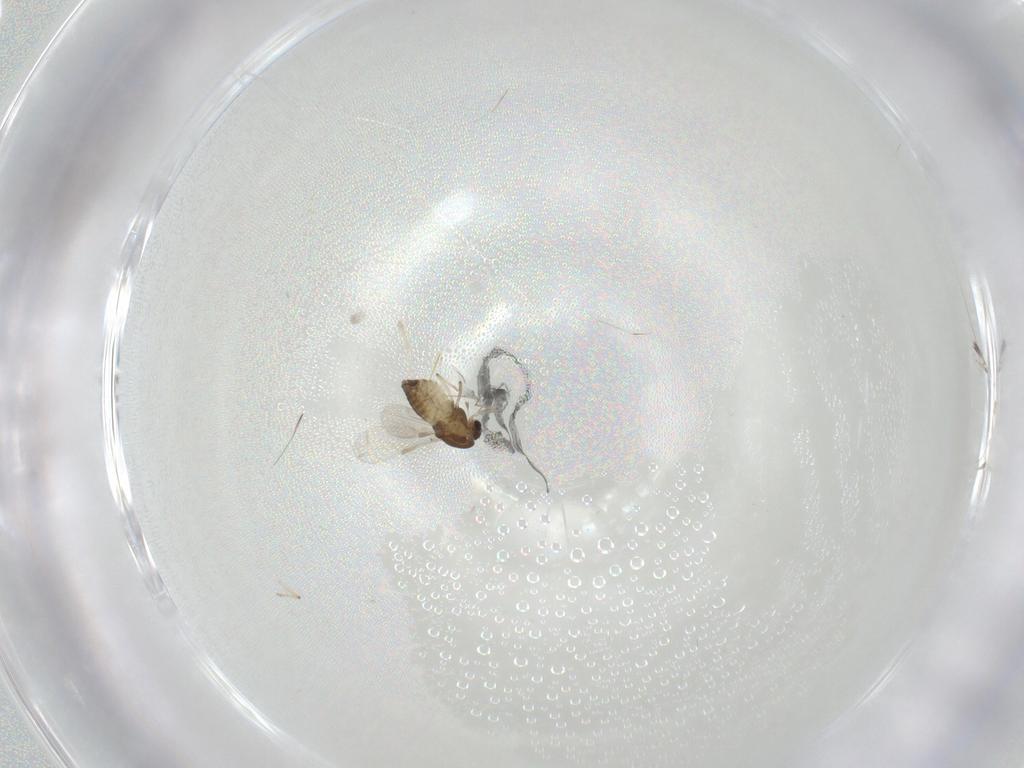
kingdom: Animalia
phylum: Arthropoda
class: Insecta
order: Diptera
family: Chironomidae
